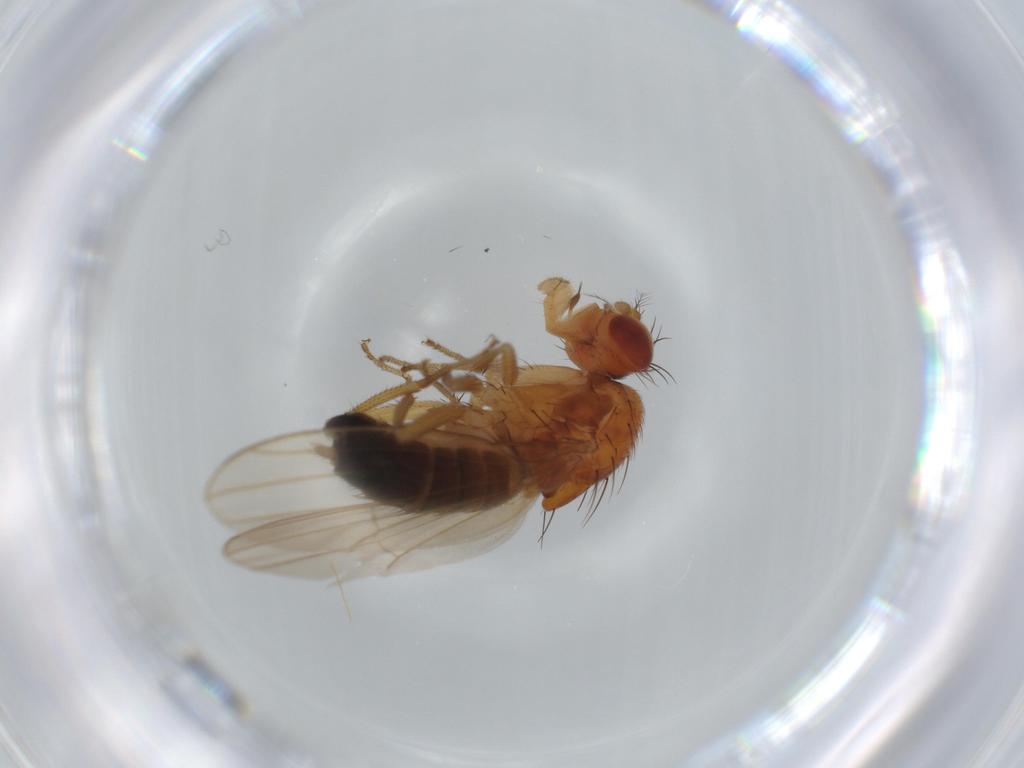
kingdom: Animalia
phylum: Arthropoda
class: Insecta
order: Diptera
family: Drosophilidae
